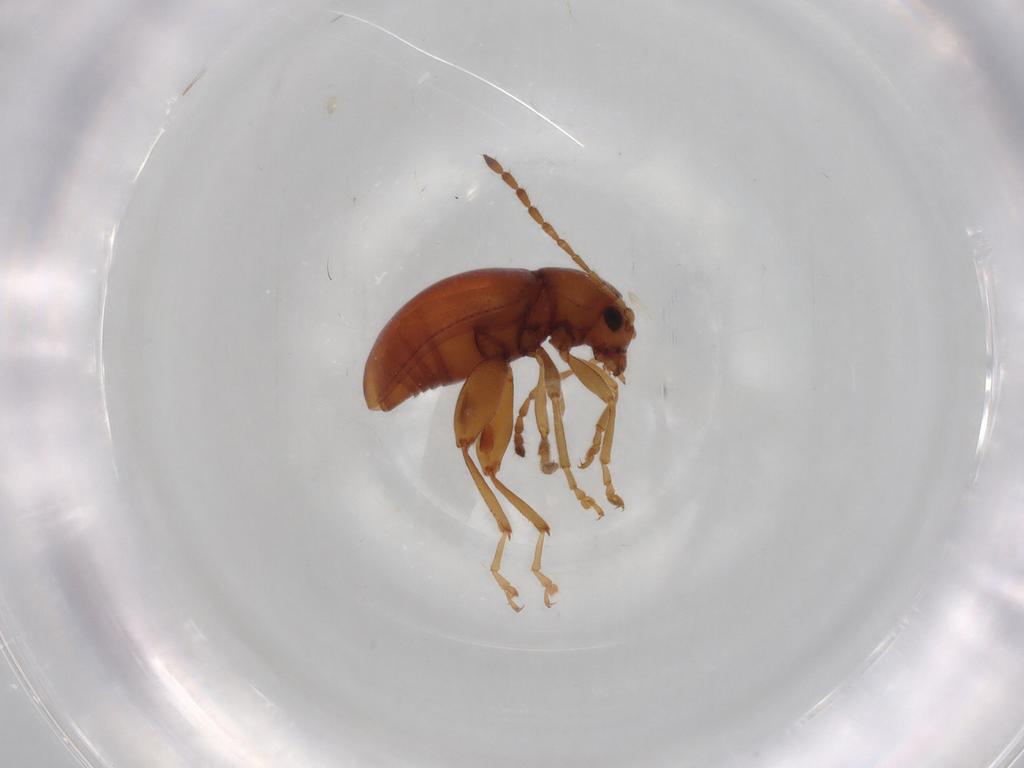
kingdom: Animalia
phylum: Arthropoda
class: Insecta
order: Coleoptera
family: Chrysomelidae
